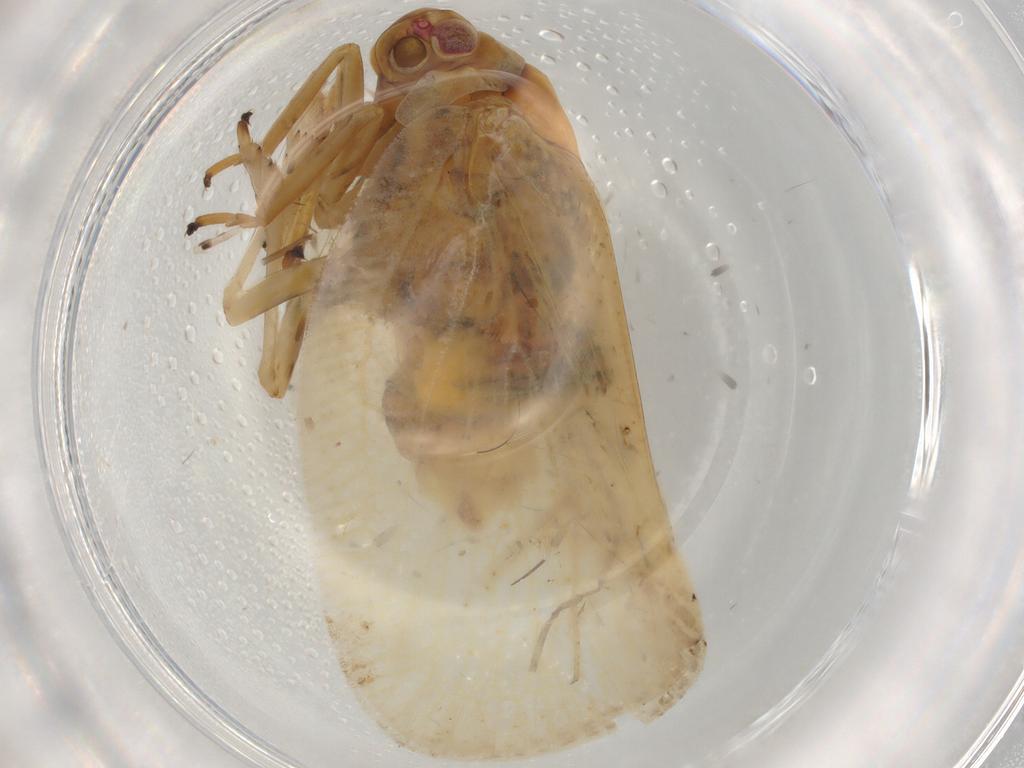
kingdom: Animalia
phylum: Arthropoda
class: Insecta
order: Hemiptera
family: Flatidae
